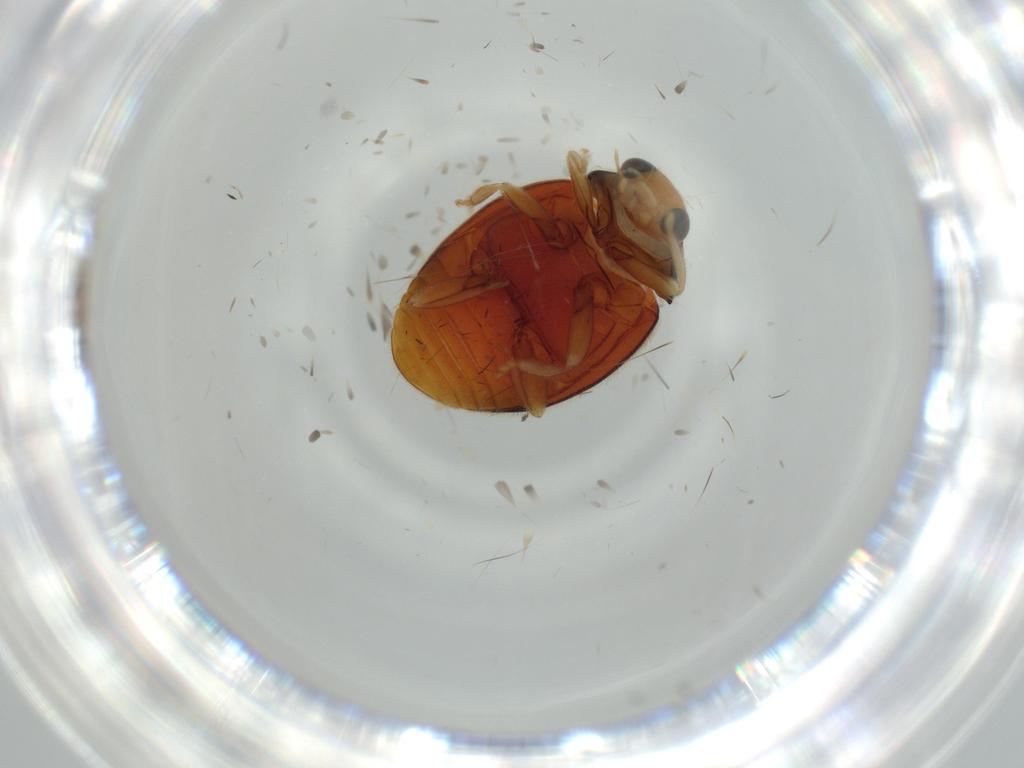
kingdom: Animalia
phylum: Arthropoda
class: Insecta
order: Coleoptera
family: Coccinellidae
